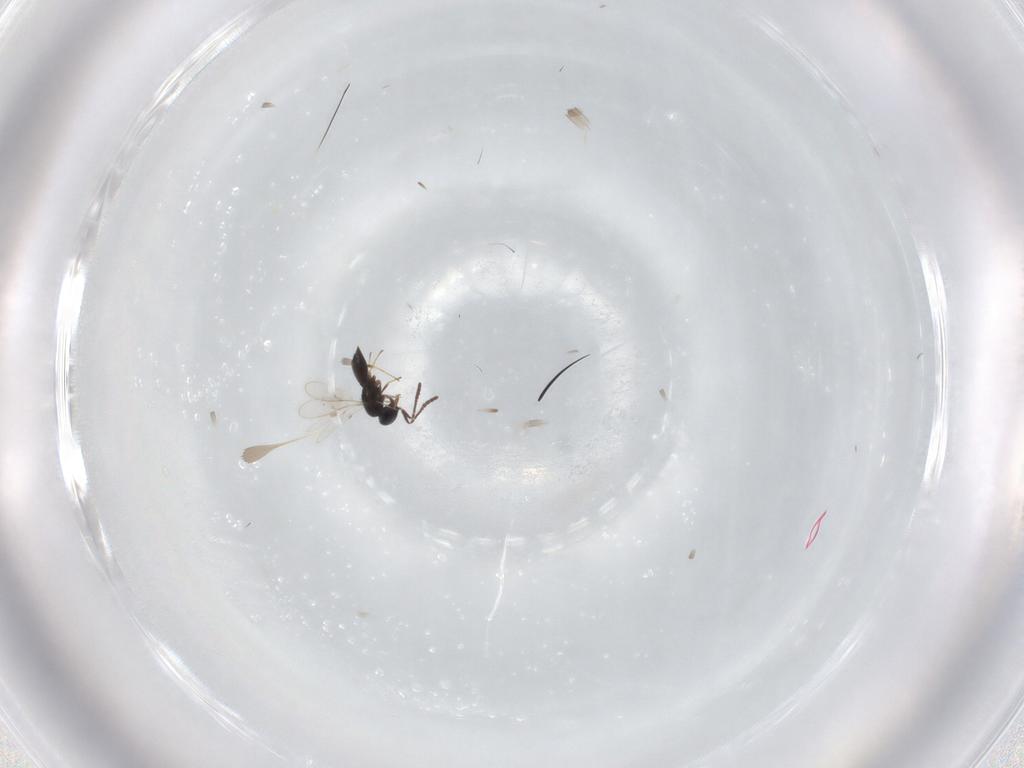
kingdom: Animalia
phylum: Arthropoda
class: Insecta
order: Hymenoptera
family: Scelionidae
